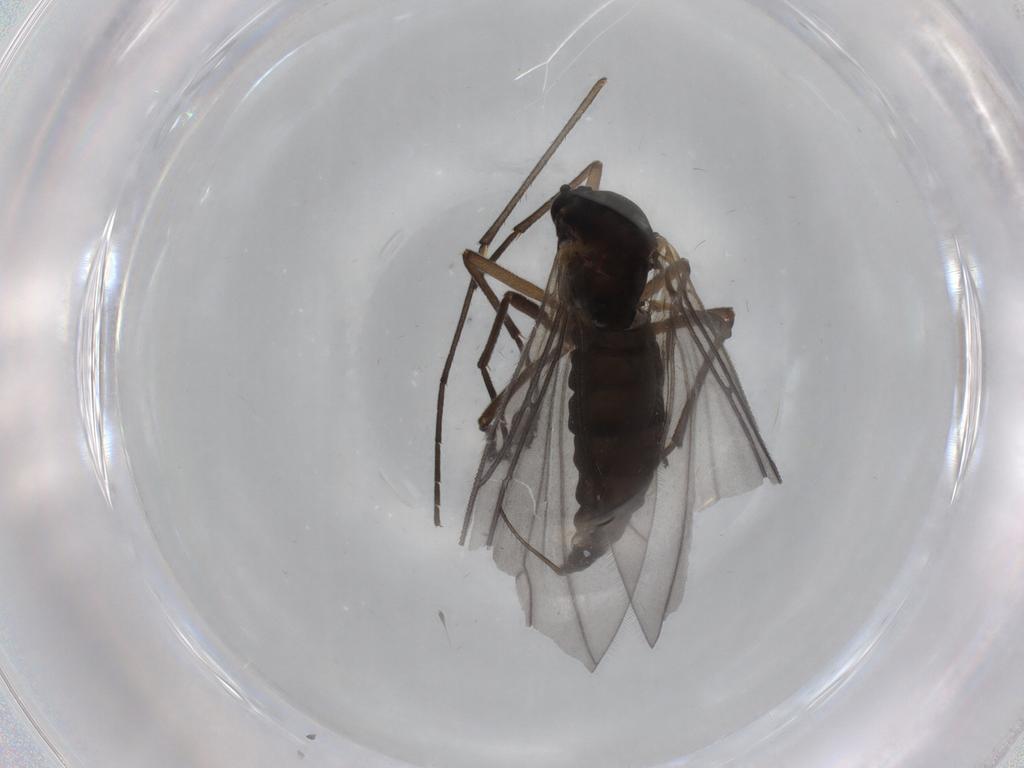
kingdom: Animalia
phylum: Arthropoda
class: Insecta
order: Diptera
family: Sciaridae
